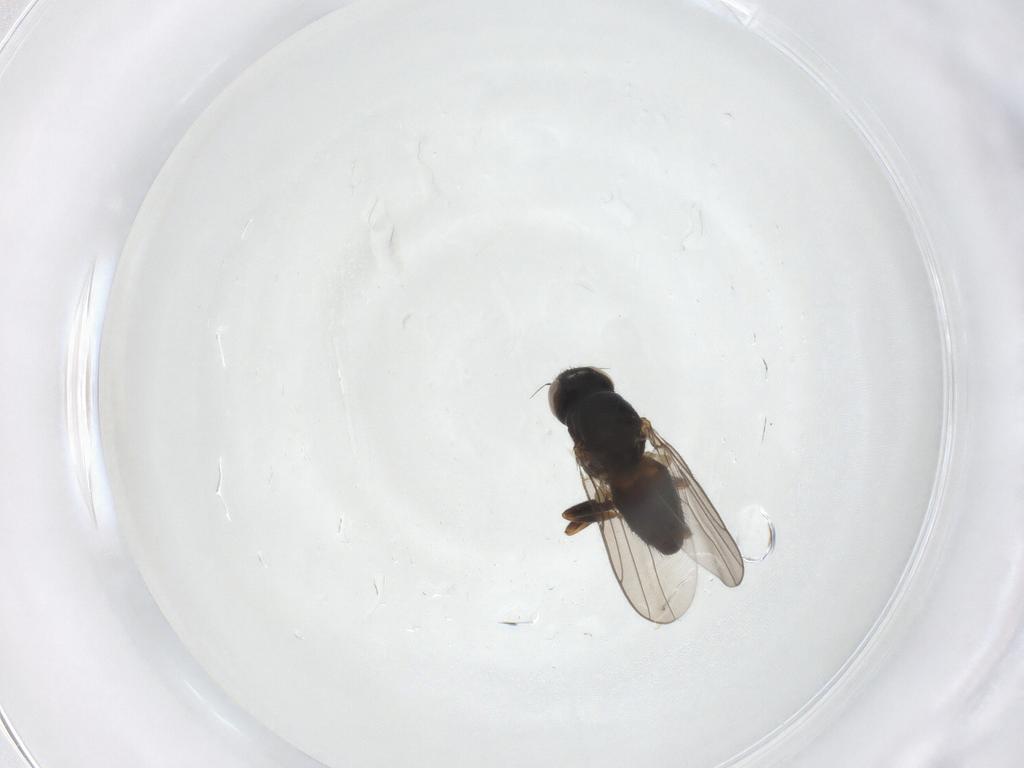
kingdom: Animalia
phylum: Arthropoda
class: Insecta
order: Diptera
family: Chloropidae
